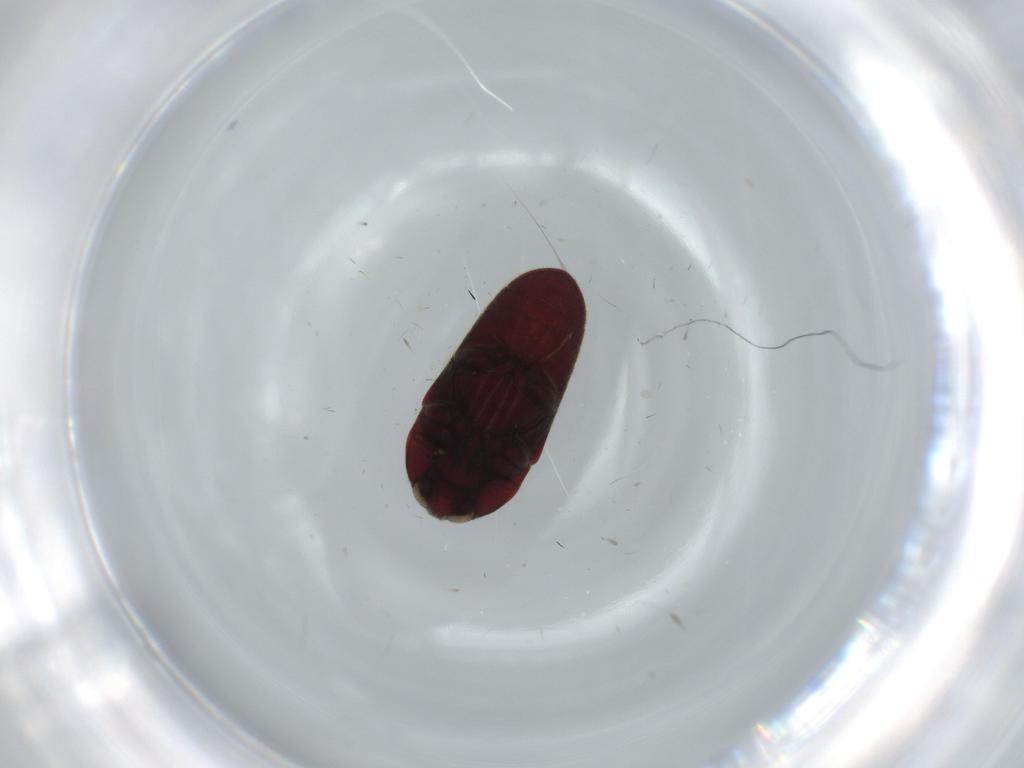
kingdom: Animalia
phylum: Arthropoda
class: Insecta
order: Coleoptera
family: Throscidae
